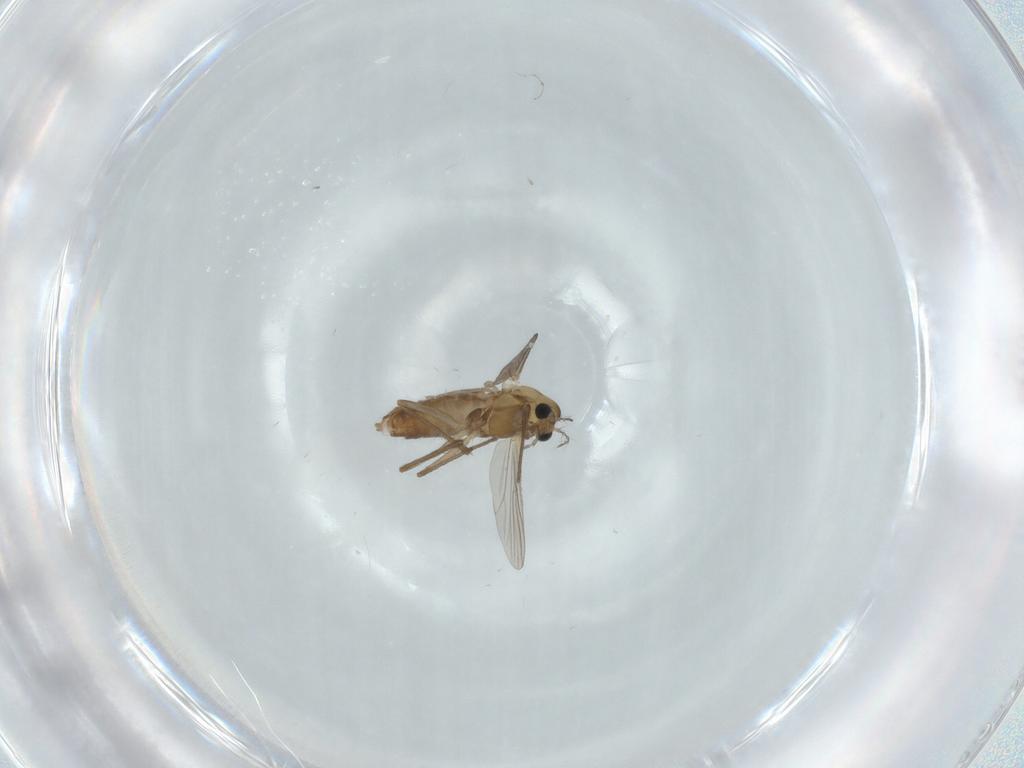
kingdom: Animalia
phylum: Arthropoda
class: Insecta
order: Diptera
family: Chironomidae
